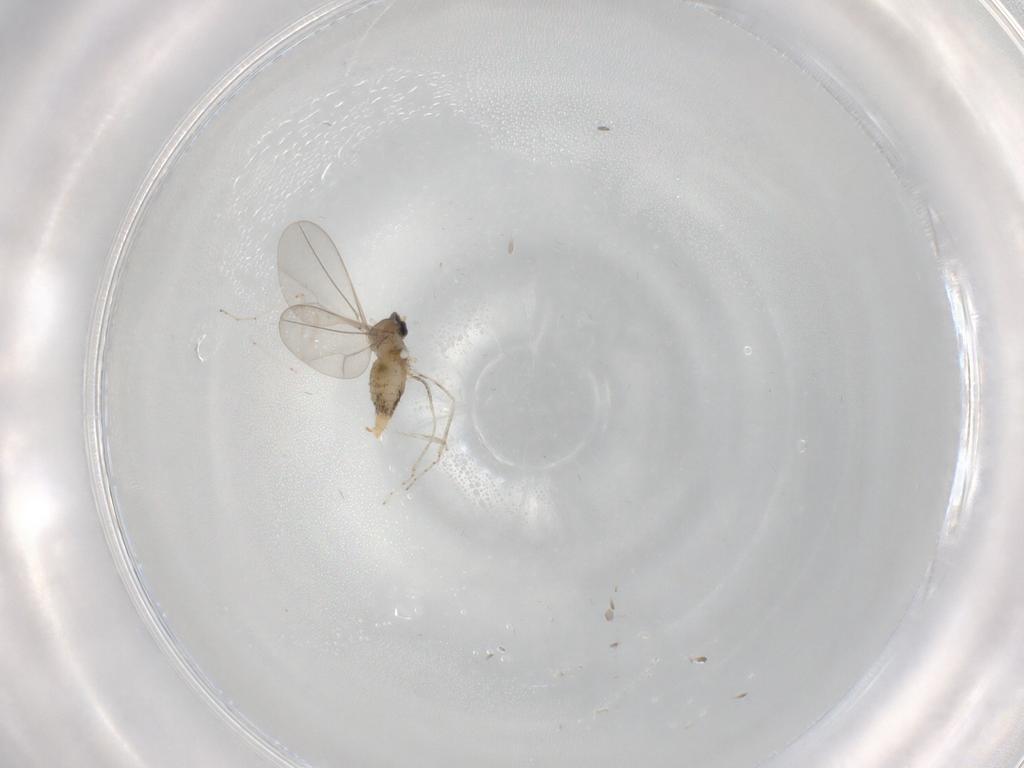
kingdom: Animalia
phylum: Arthropoda
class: Insecta
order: Diptera
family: Cecidomyiidae
